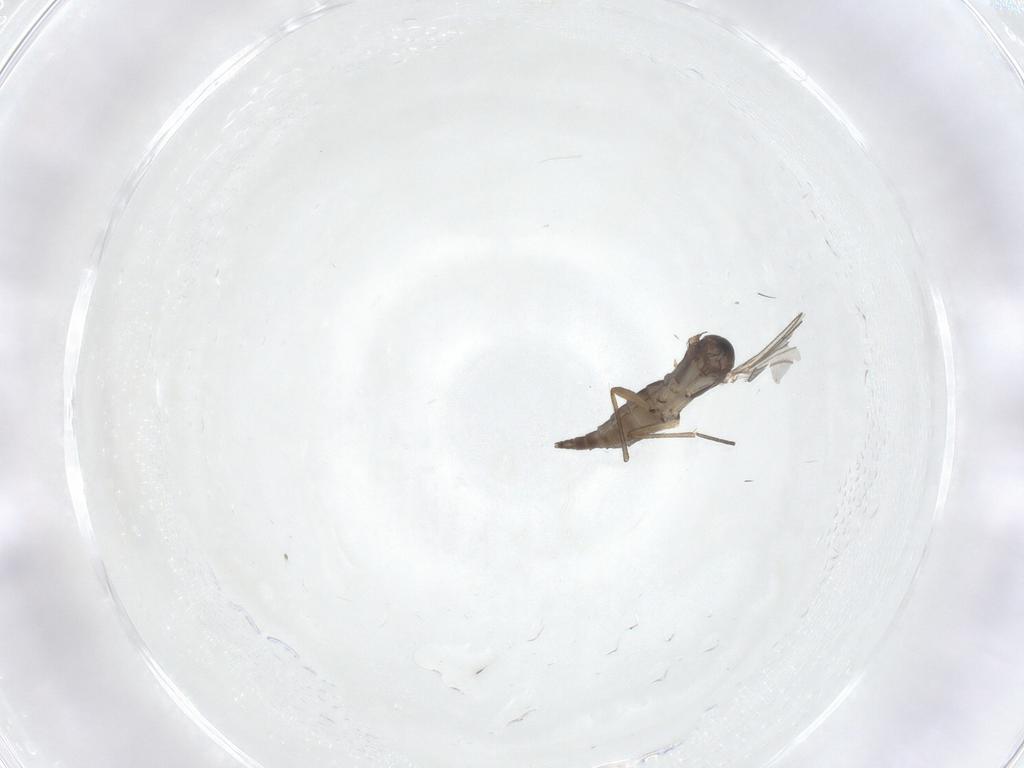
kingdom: Animalia
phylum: Arthropoda
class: Insecta
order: Diptera
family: Sciaridae
